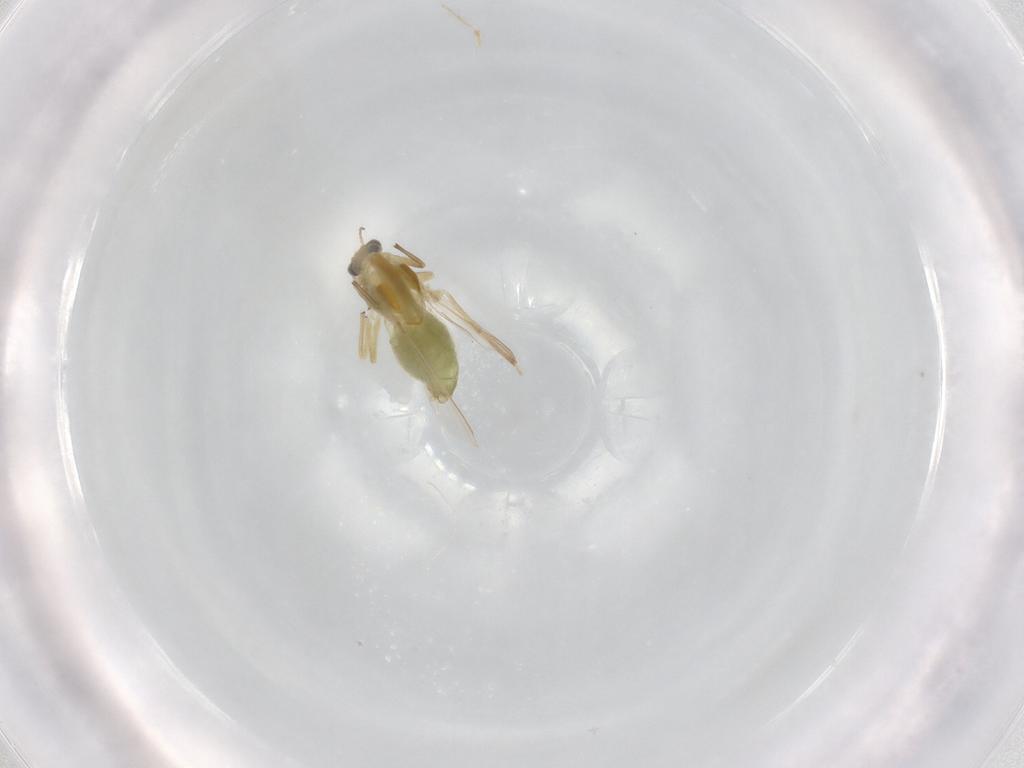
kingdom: Animalia
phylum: Arthropoda
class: Insecta
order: Diptera
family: Chironomidae
